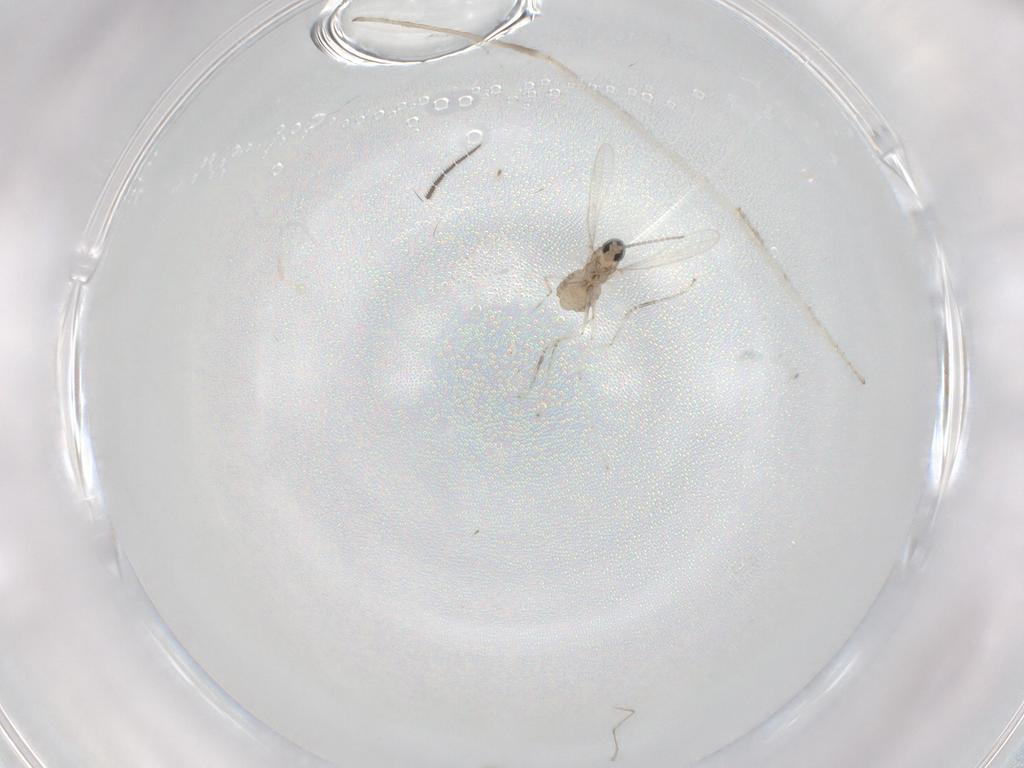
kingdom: Animalia
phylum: Arthropoda
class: Insecta
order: Diptera
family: Cecidomyiidae
